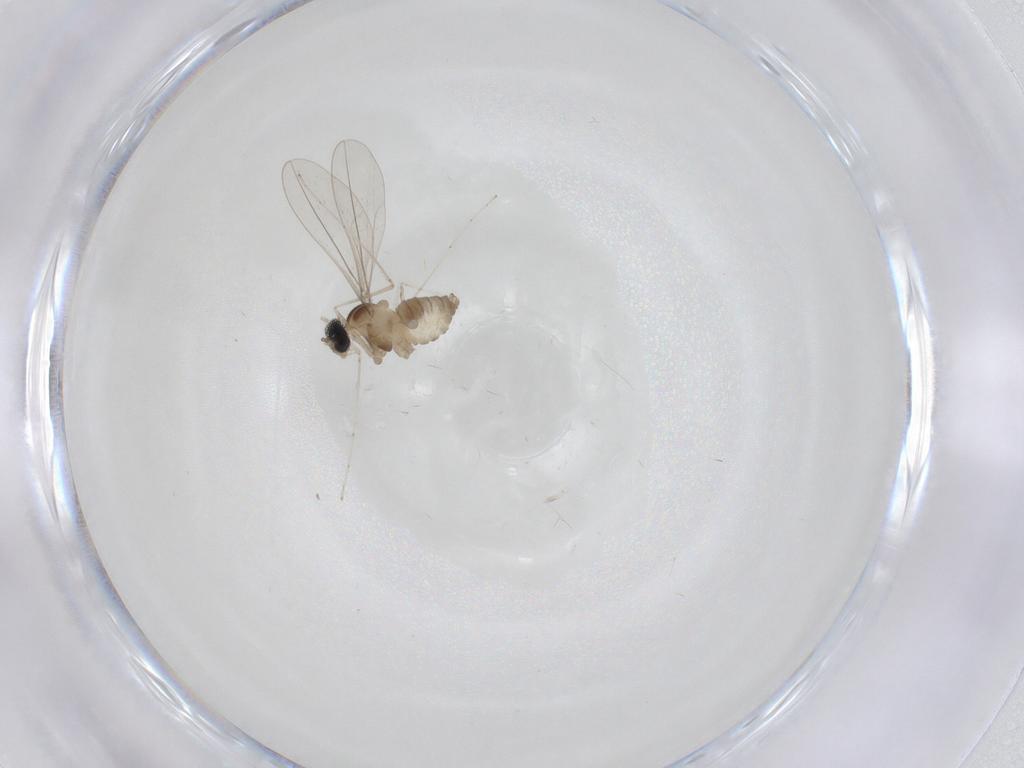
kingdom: Animalia
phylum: Arthropoda
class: Insecta
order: Diptera
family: Cecidomyiidae
